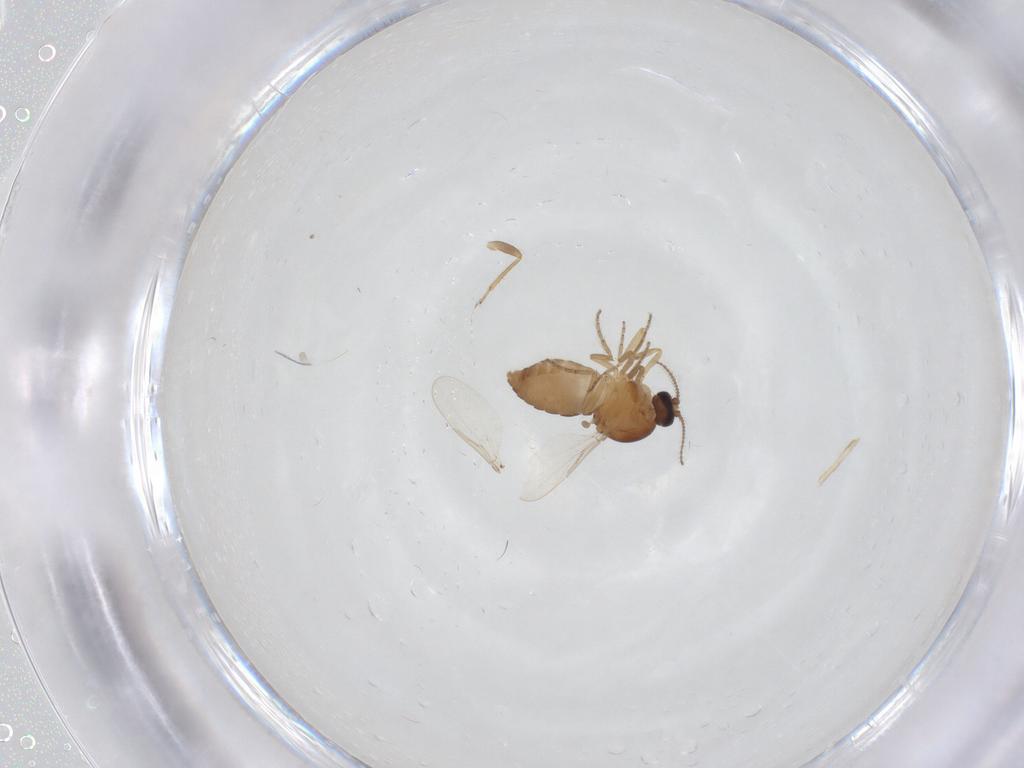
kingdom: Animalia
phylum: Arthropoda
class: Insecta
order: Diptera
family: Ceratopogonidae
